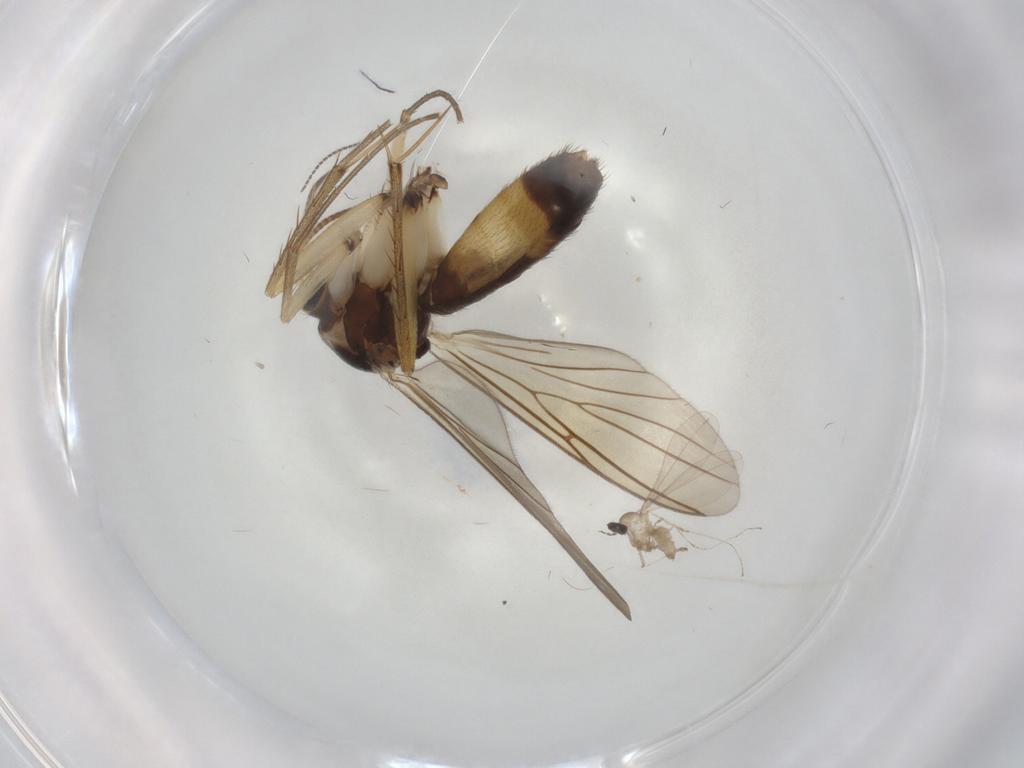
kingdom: Animalia
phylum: Arthropoda
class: Insecta
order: Diptera
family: Mycetophilidae
